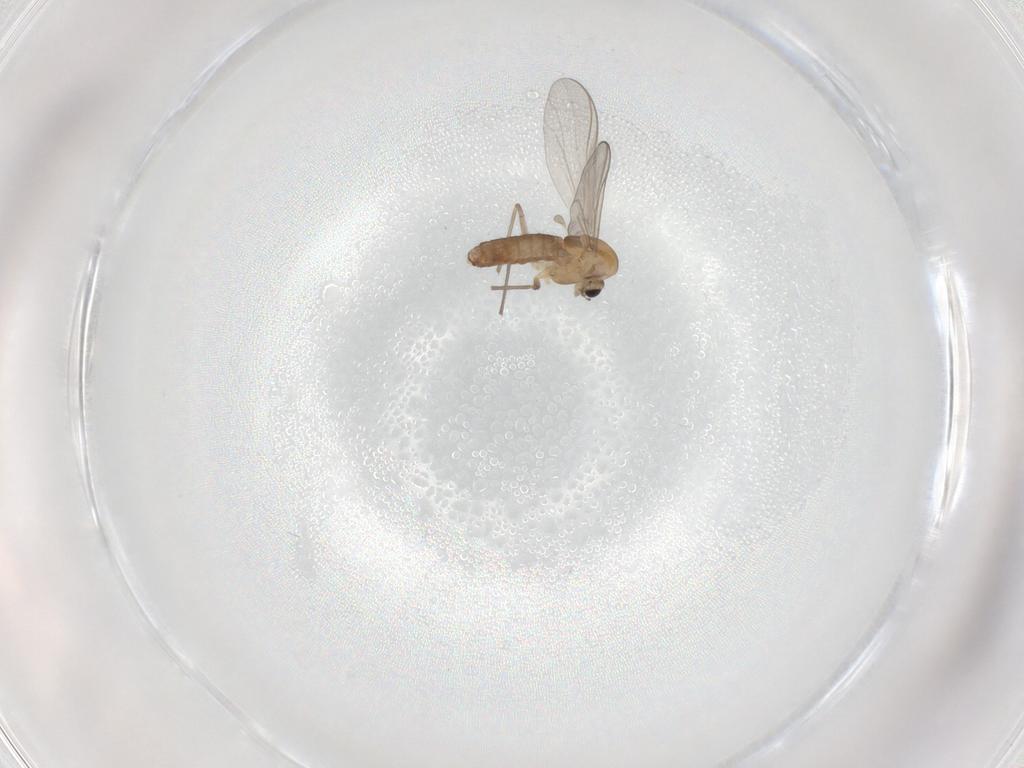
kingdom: Animalia
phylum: Arthropoda
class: Insecta
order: Diptera
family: Chironomidae
